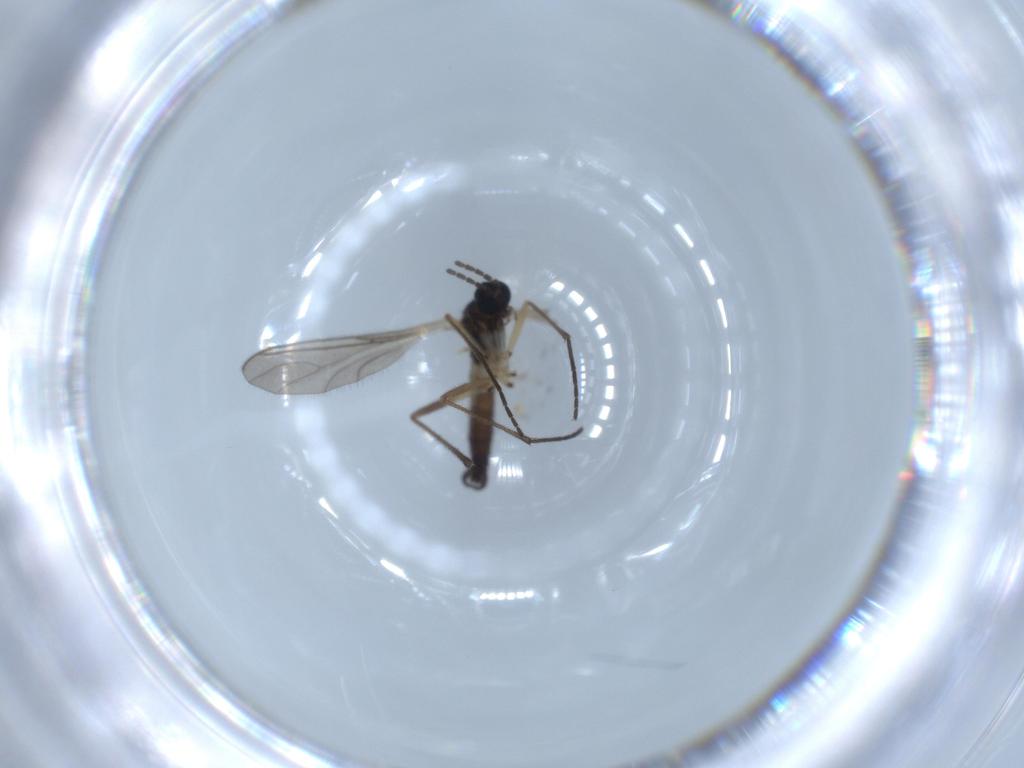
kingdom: Animalia
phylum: Arthropoda
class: Insecta
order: Diptera
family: Sciaridae
